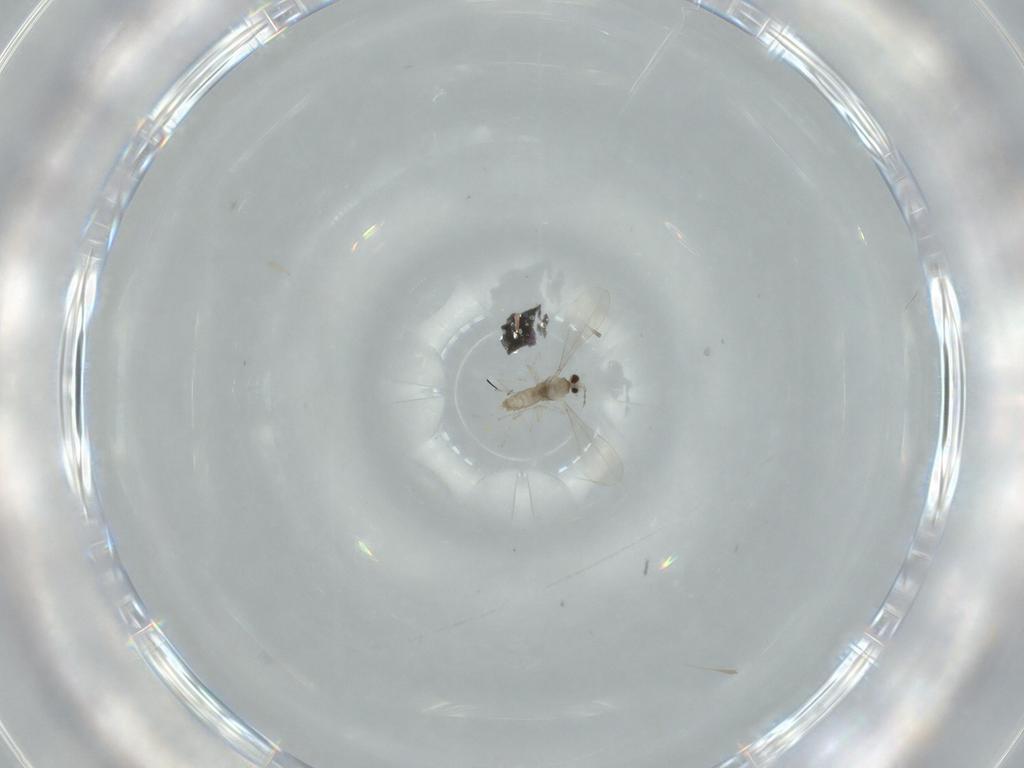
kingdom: Animalia
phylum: Arthropoda
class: Insecta
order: Diptera
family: Cecidomyiidae
